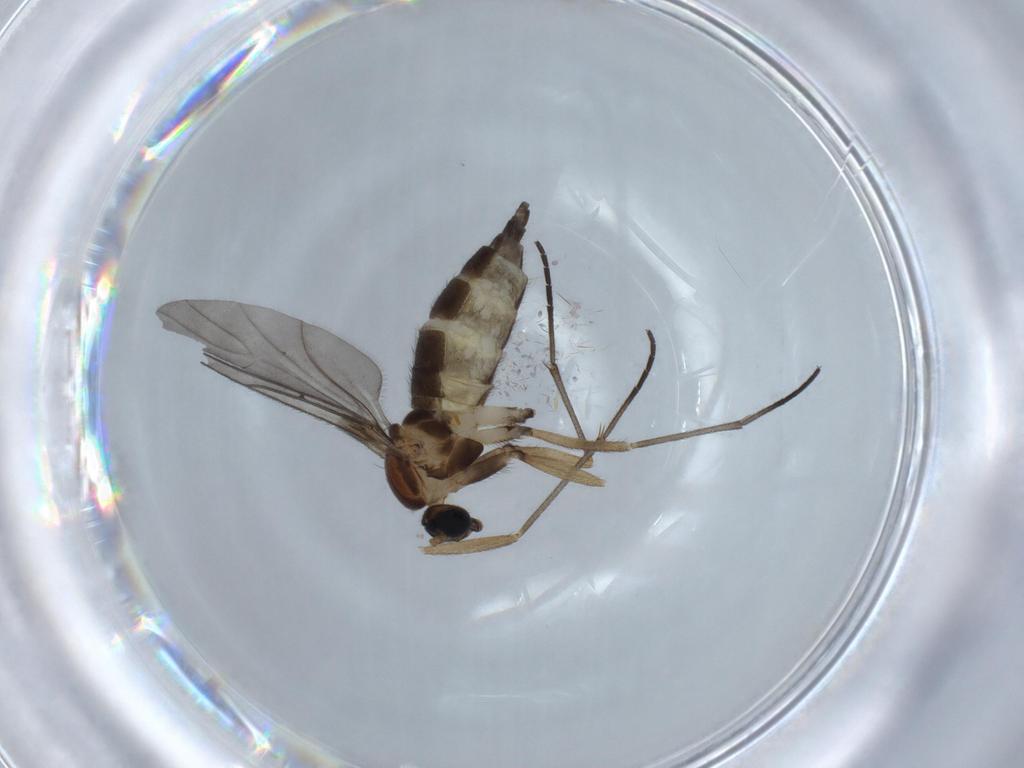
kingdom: Animalia
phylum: Arthropoda
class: Insecta
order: Diptera
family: Sciaridae
